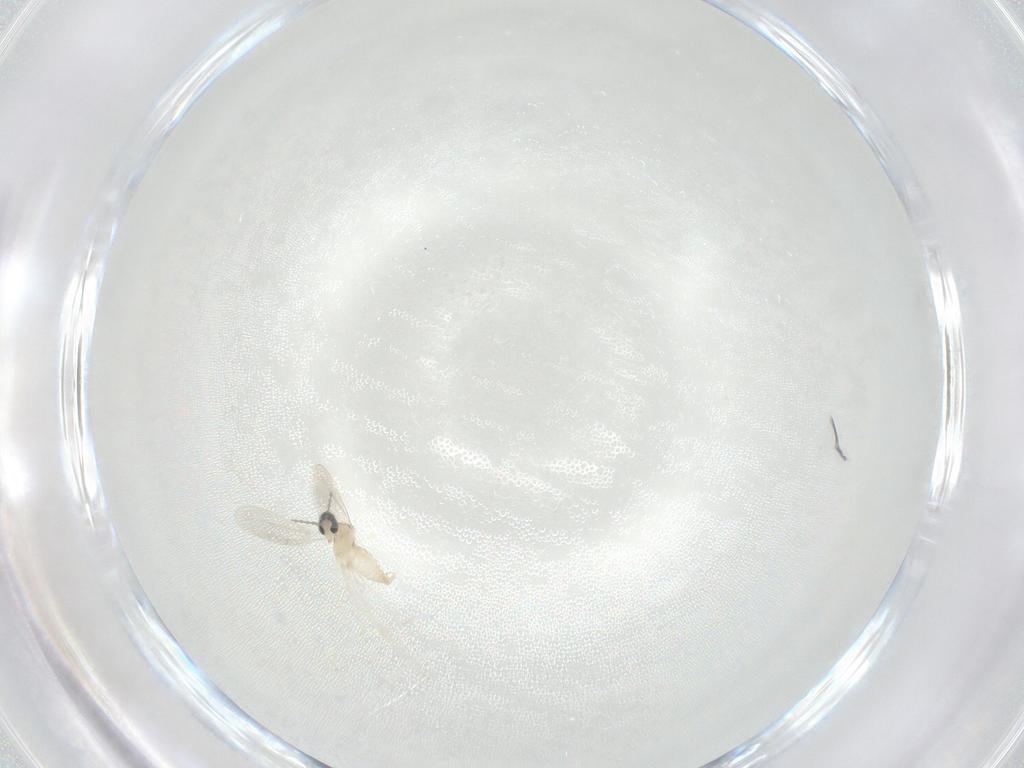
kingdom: Animalia
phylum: Arthropoda
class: Insecta
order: Diptera
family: Cecidomyiidae
